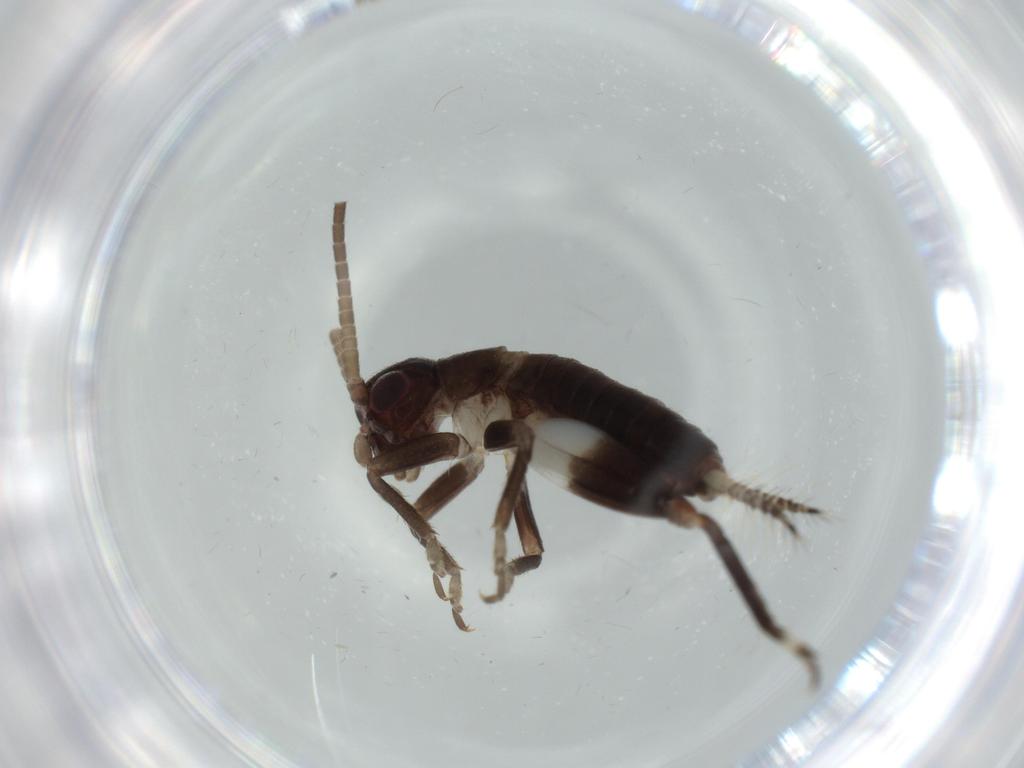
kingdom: Animalia
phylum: Arthropoda
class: Insecta
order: Orthoptera
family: Gryllidae
